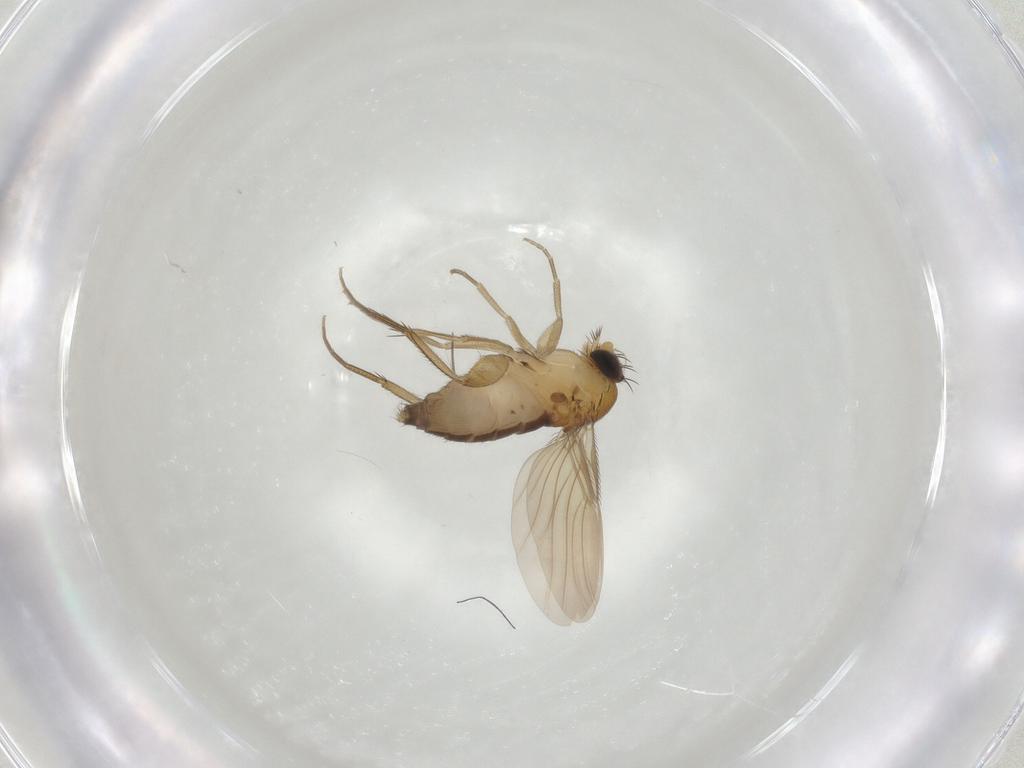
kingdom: Animalia
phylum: Arthropoda
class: Insecta
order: Diptera
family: Phoridae
